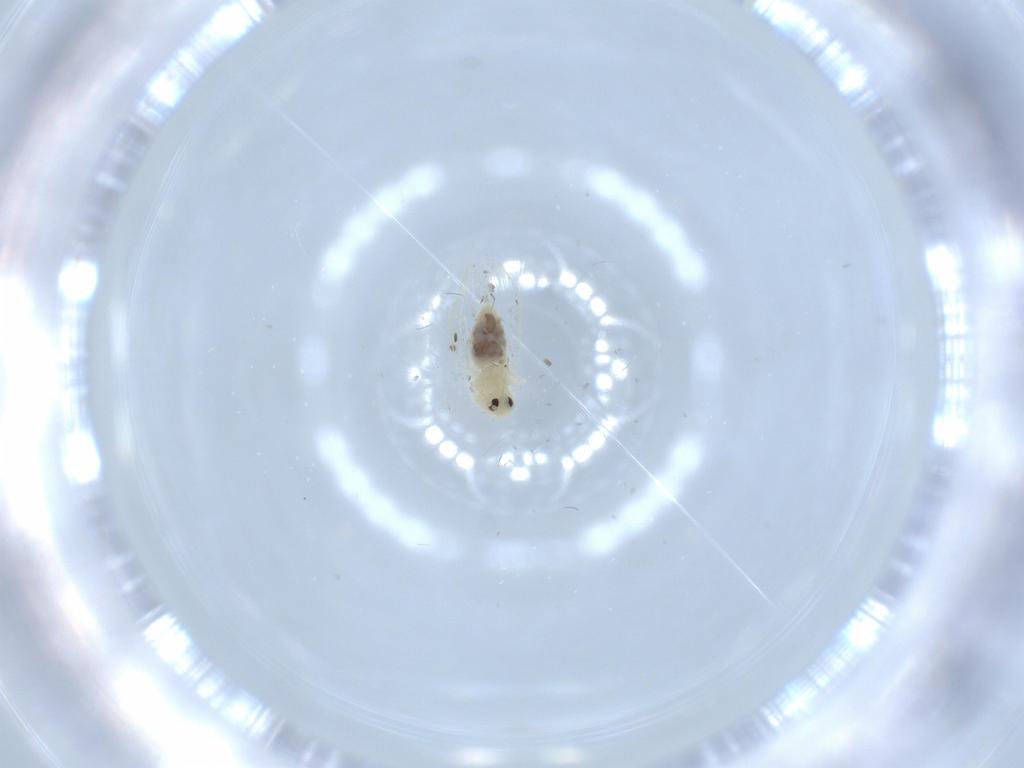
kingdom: Animalia
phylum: Arthropoda
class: Insecta
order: Hemiptera
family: Aleyrodidae
